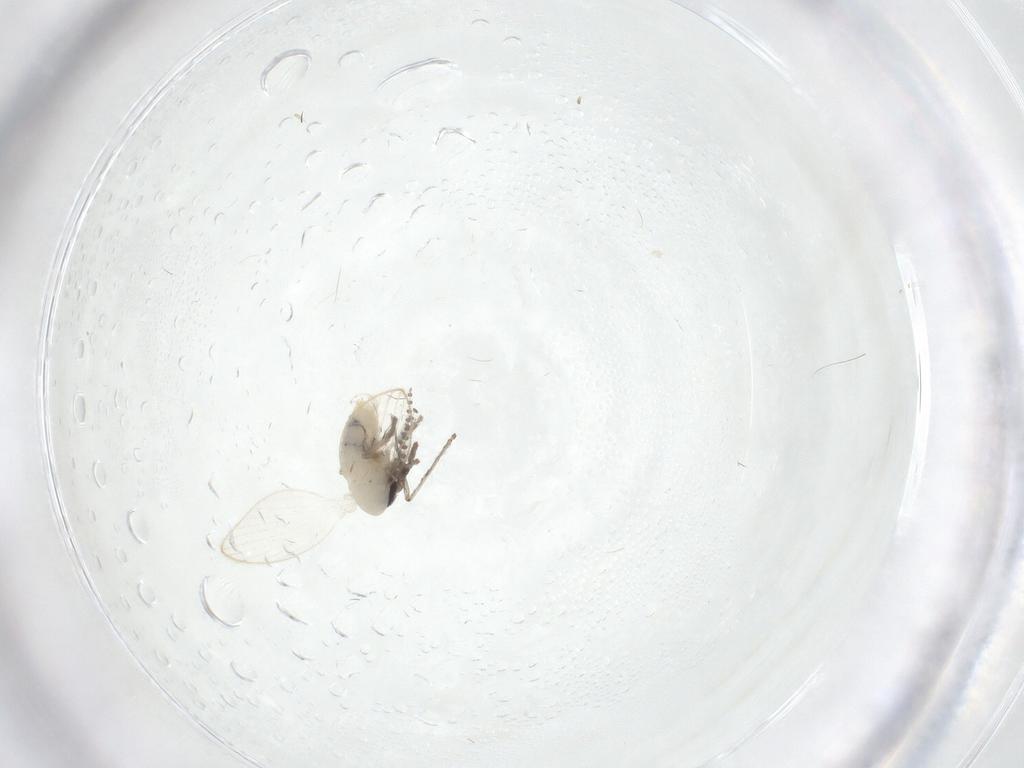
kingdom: Animalia
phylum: Arthropoda
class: Insecta
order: Diptera
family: Psychodidae
